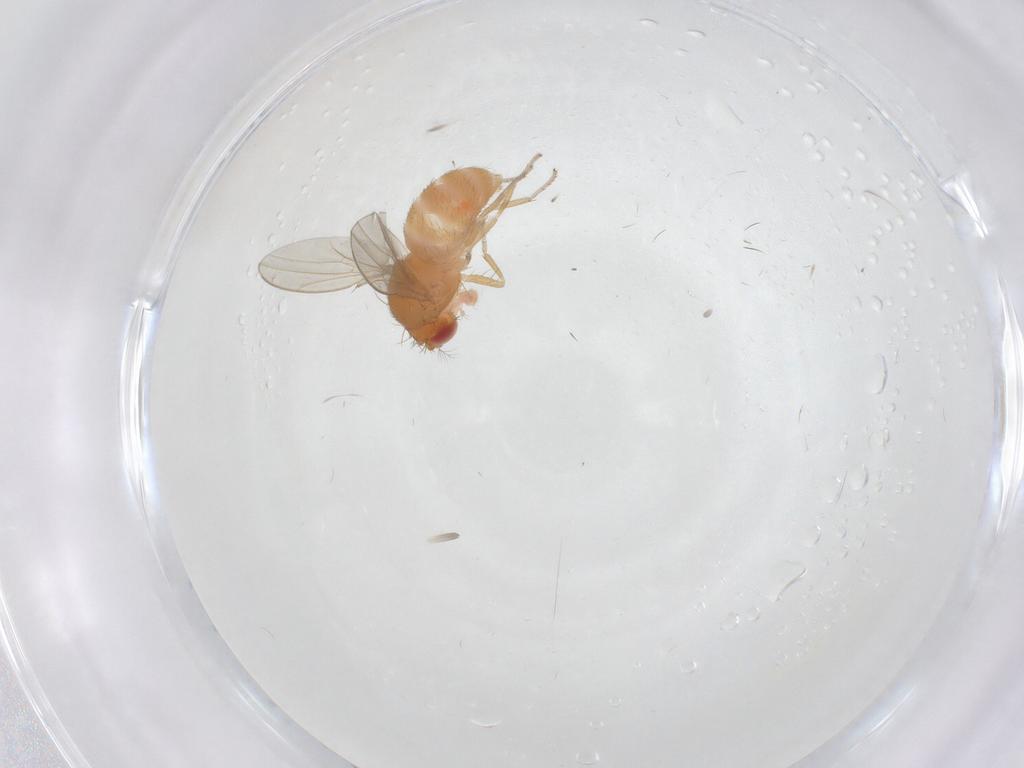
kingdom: Animalia
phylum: Arthropoda
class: Insecta
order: Diptera
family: Drosophilidae
